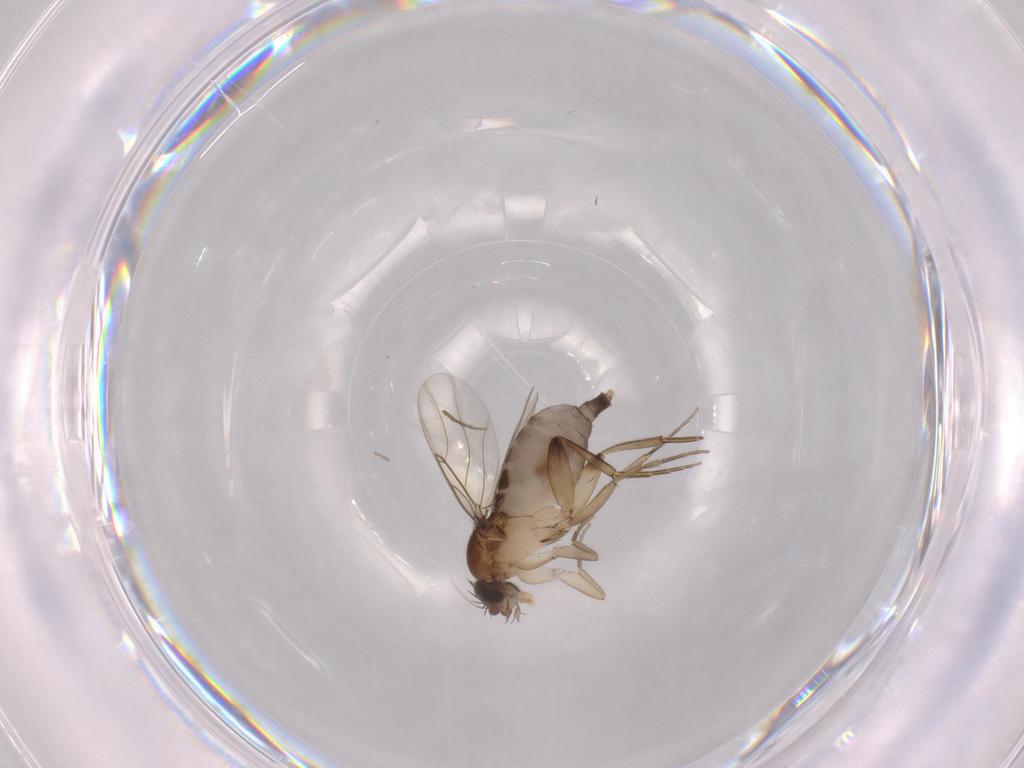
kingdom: Animalia
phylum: Arthropoda
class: Insecta
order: Diptera
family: Phoridae
